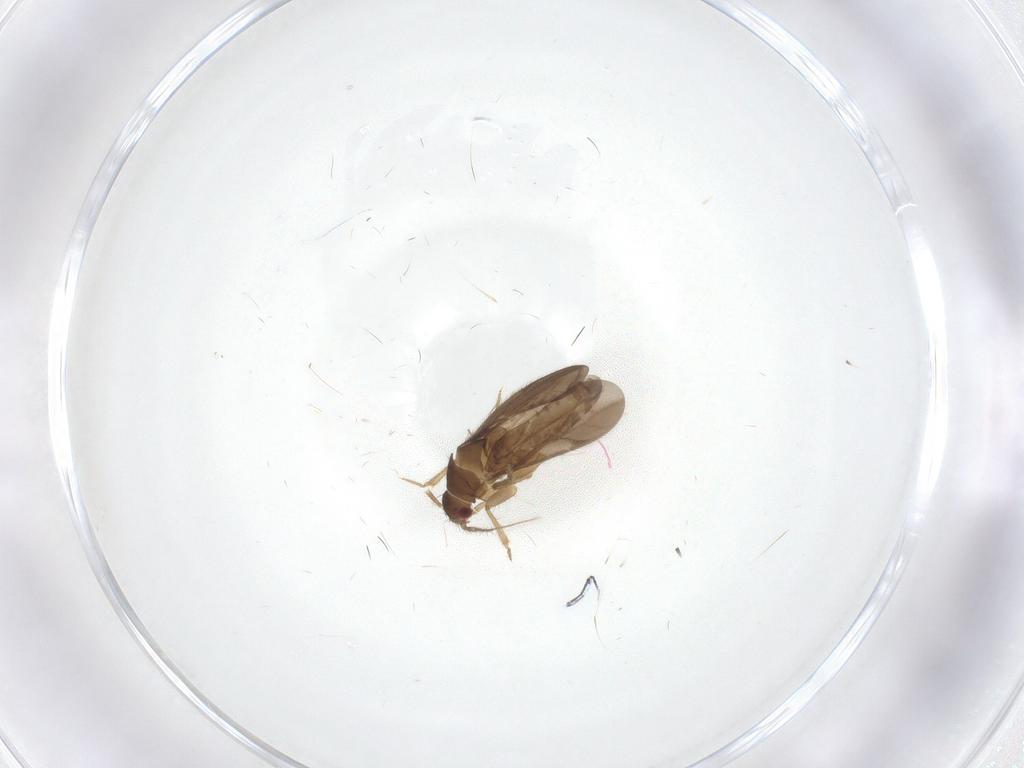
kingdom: Animalia
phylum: Arthropoda
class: Insecta
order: Hemiptera
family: Ceratocombidae
